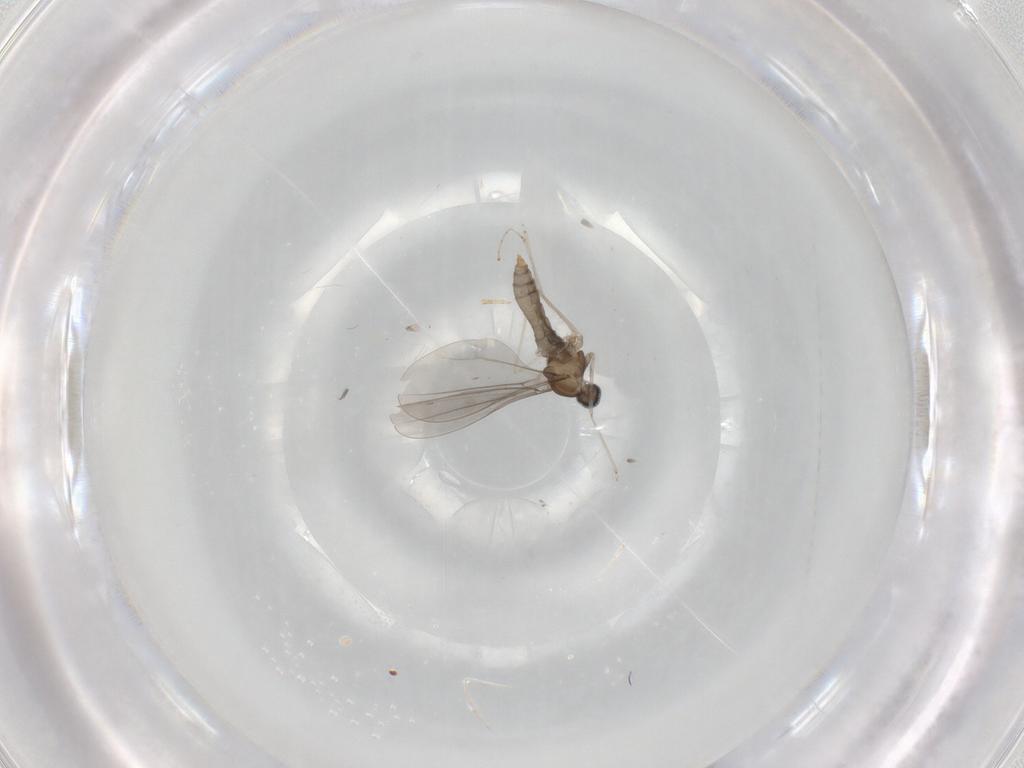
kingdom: Animalia
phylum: Arthropoda
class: Insecta
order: Diptera
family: Cecidomyiidae
